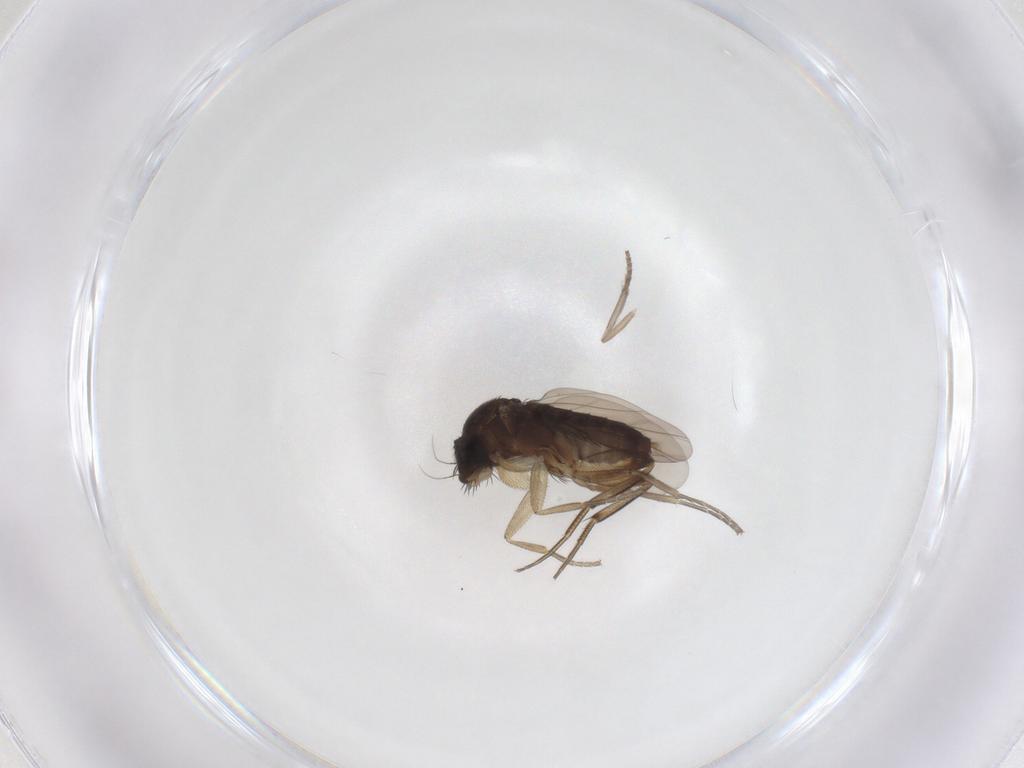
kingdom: Animalia
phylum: Arthropoda
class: Insecta
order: Diptera
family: Phoridae
